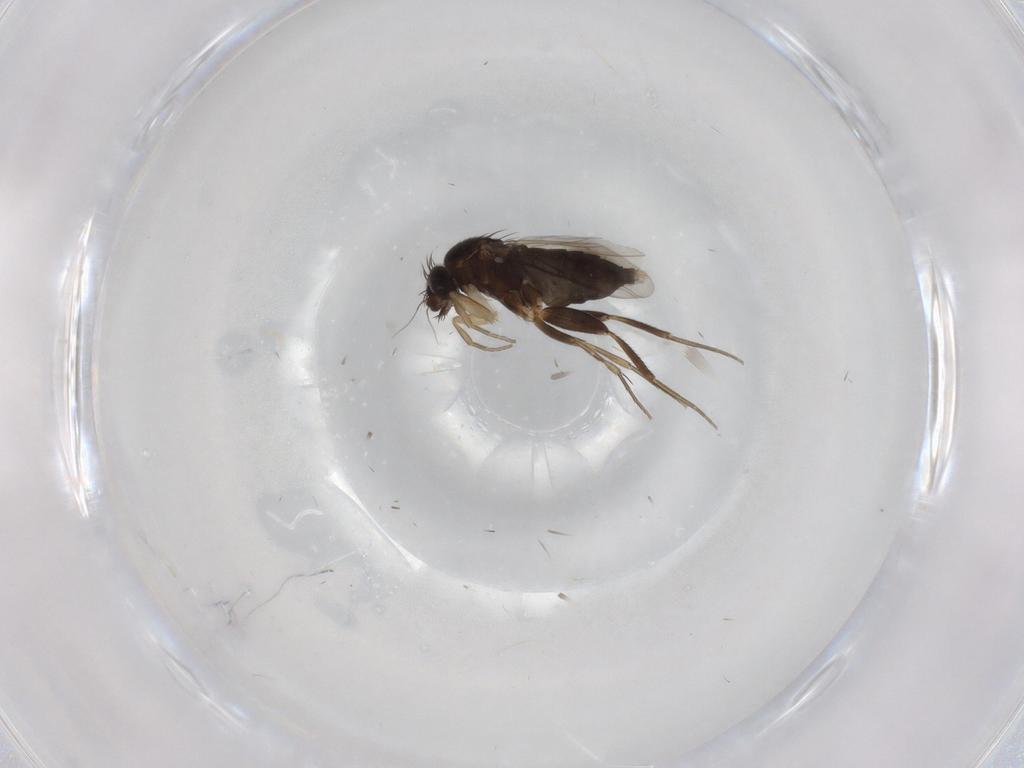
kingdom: Animalia
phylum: Arthropoda
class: Insecta
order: Diptera
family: Phoridae
